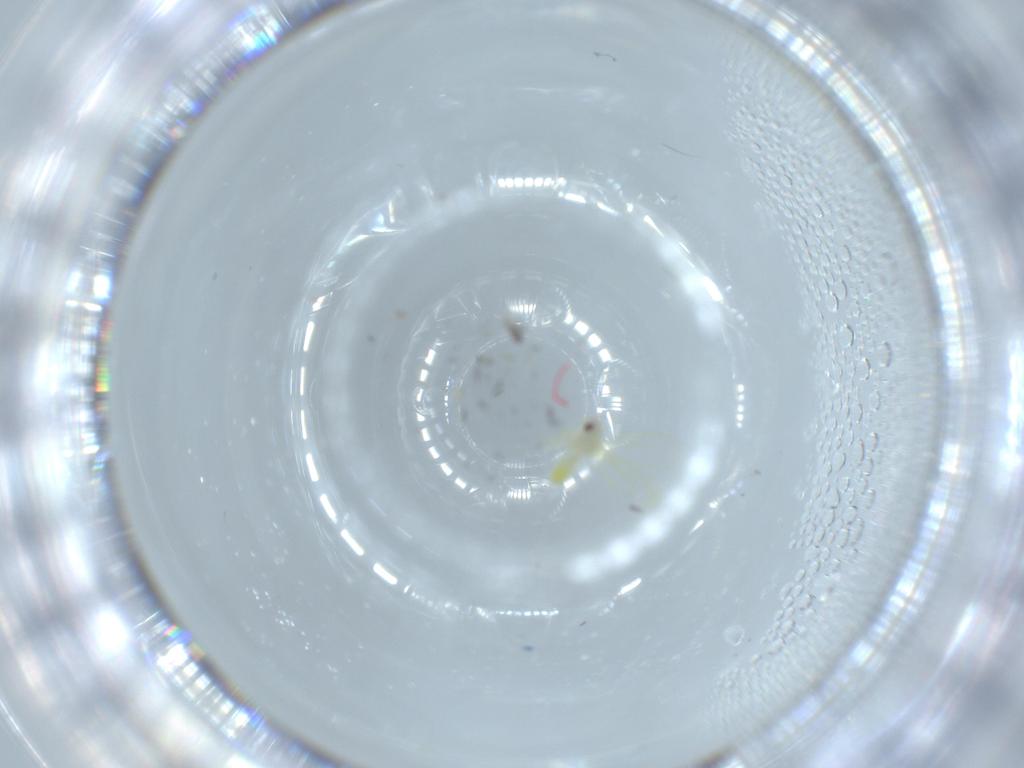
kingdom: Animalia
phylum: Arthropoda
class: Insecta
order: Hemiptera
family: Aleyrodidae
